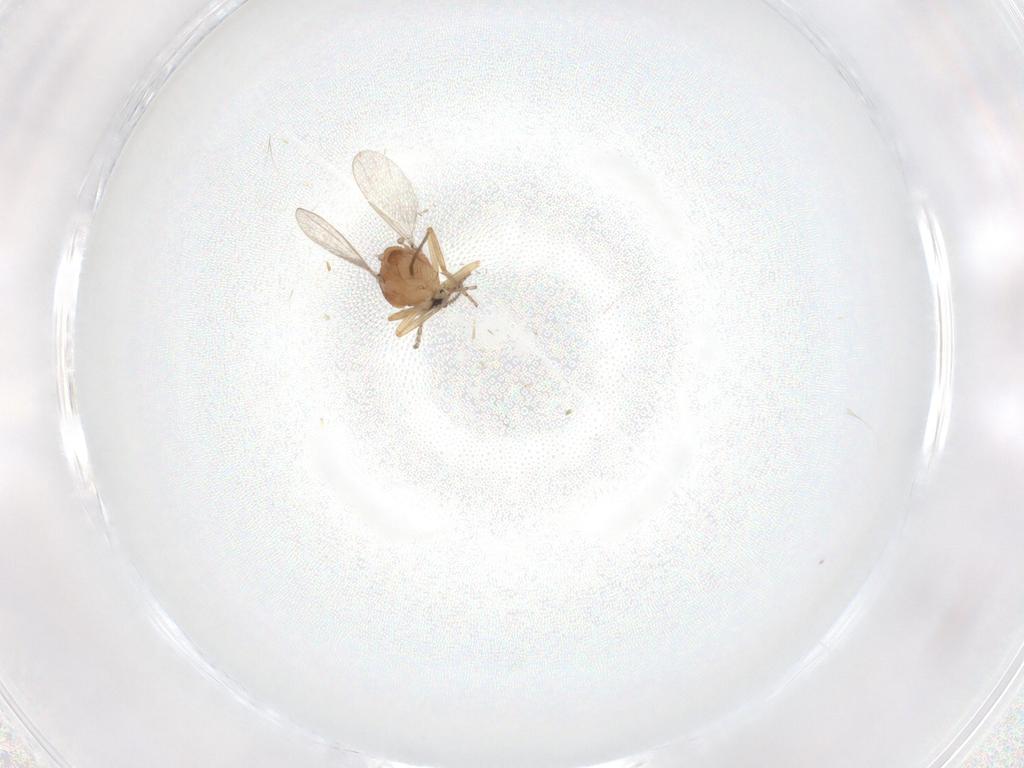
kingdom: Animalia
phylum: Arthropoda
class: Insecta
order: Diptera
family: Ceratopogonidae
